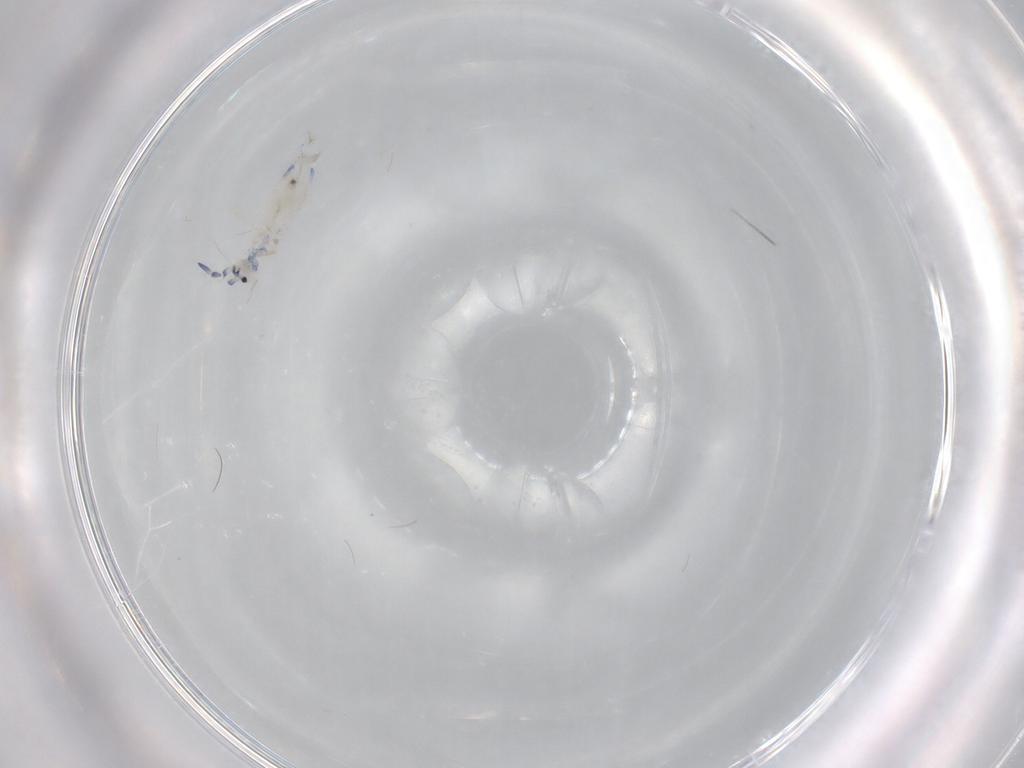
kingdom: Animalia
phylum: Arthropoda
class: Collembola
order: Entomobryomorpha
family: Entomobryidae
